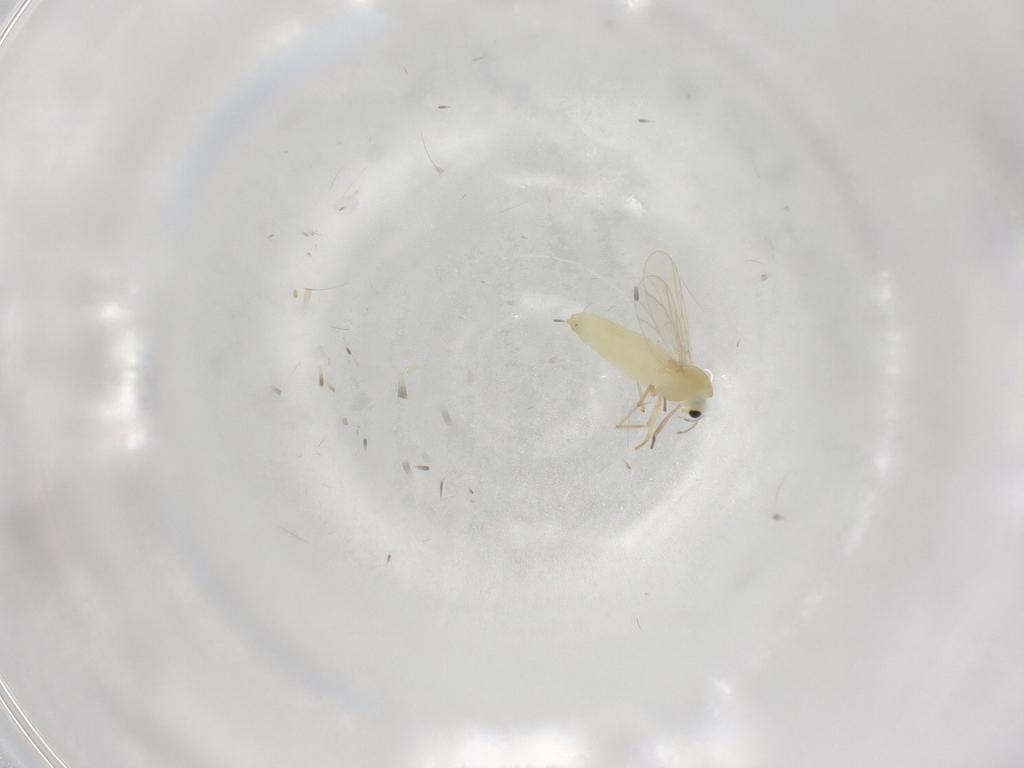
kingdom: Animalia
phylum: Arthropoda
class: Insecta
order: Diptera
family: Chironomidae
